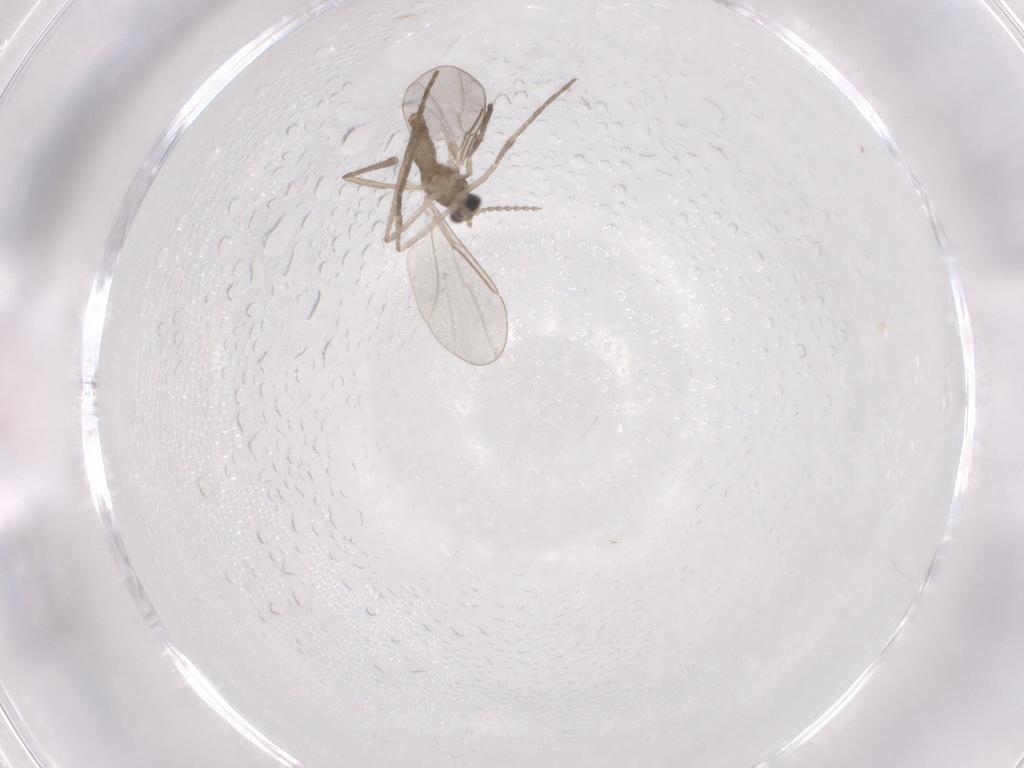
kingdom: Animalia
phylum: Arthropoda
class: Insecta
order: Diptera
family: Cecidomyiidae
